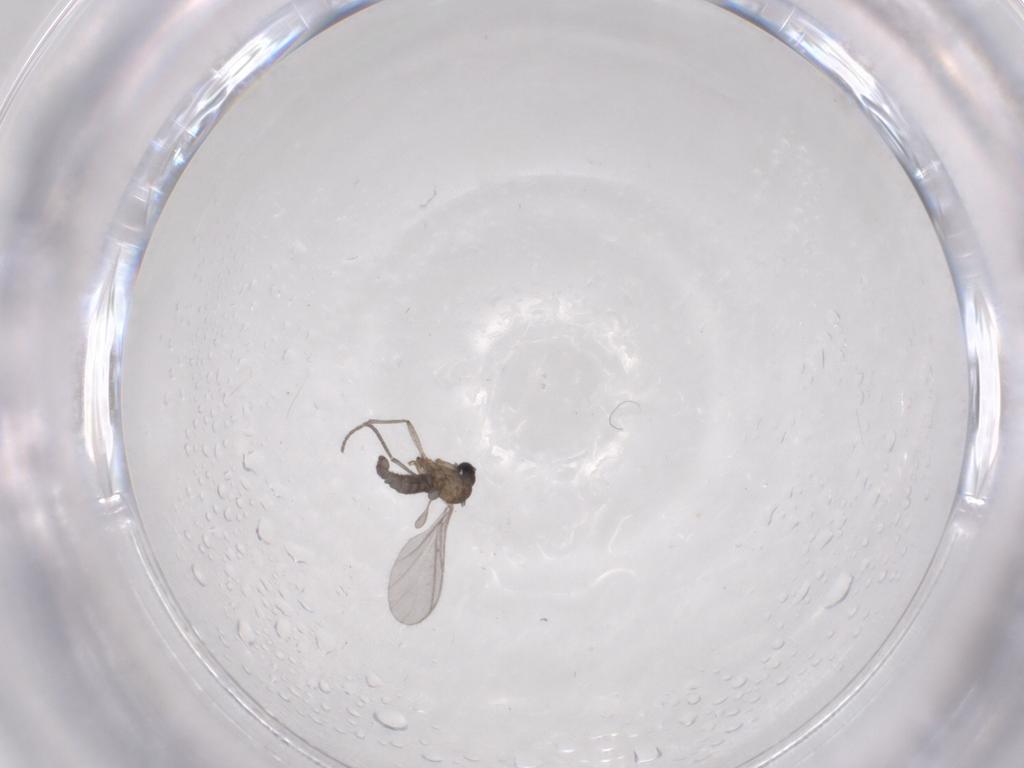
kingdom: Animalia
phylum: Arthropoda
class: Insecta
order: Diptera
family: Sciaridae
